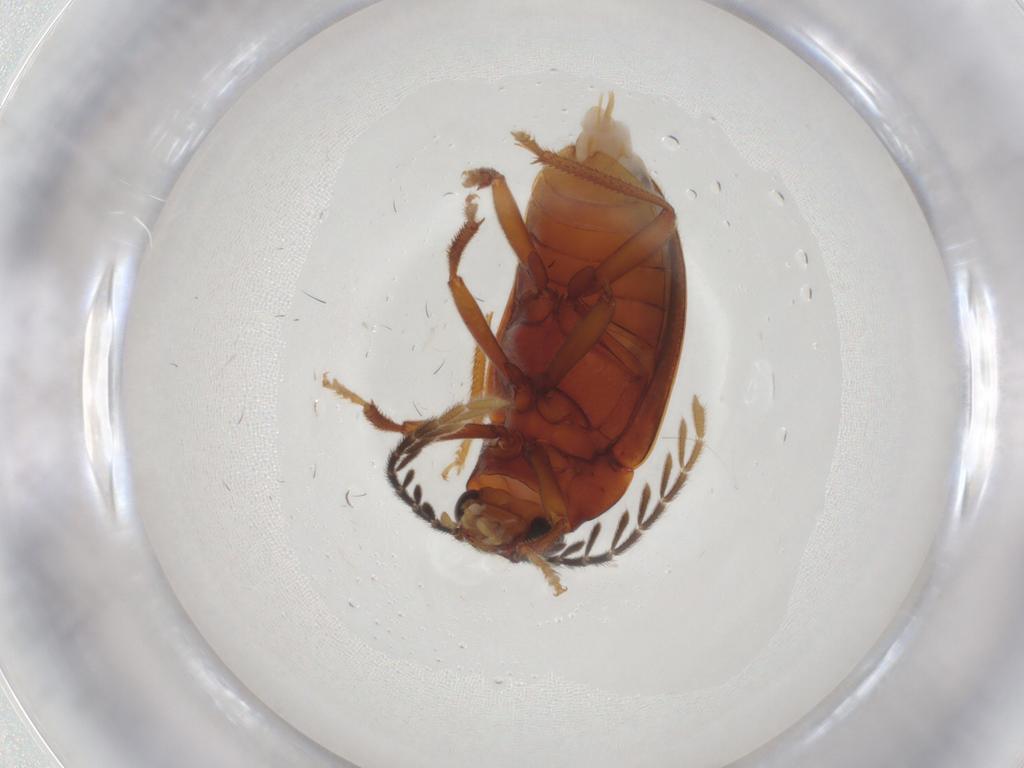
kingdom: Animalia
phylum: Arthropoda
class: Insecta
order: Coleoptera
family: Ptilodactylidae
